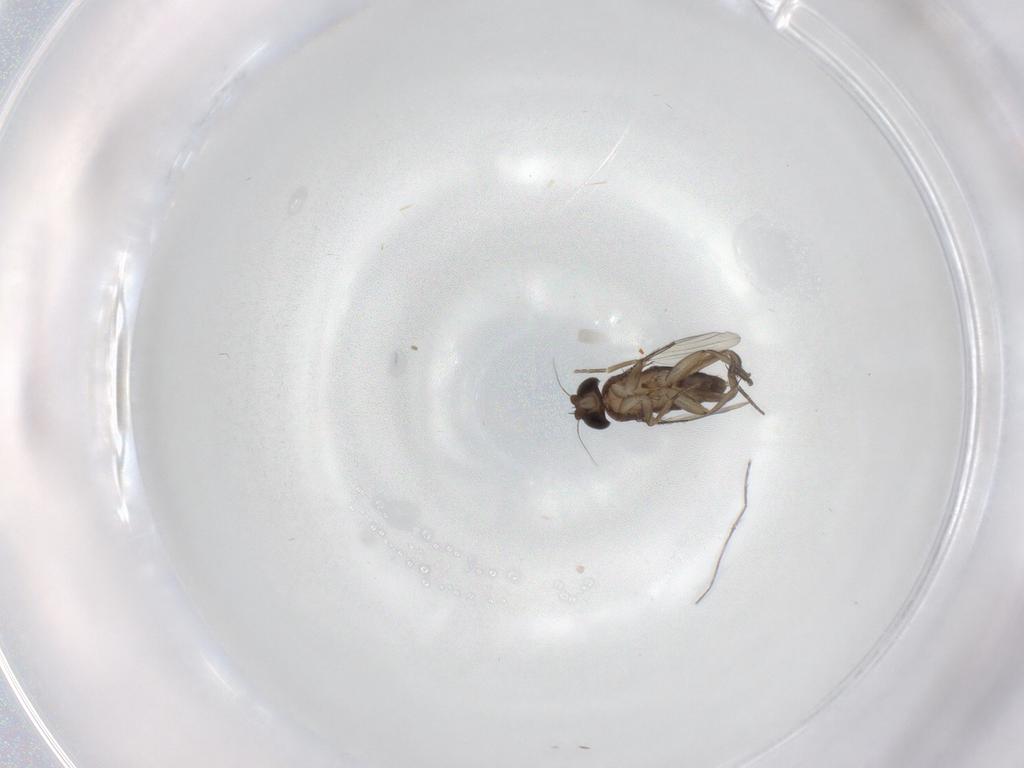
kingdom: Animalia
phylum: Arthropoda
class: Insecta
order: Diptera
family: Phoridae
